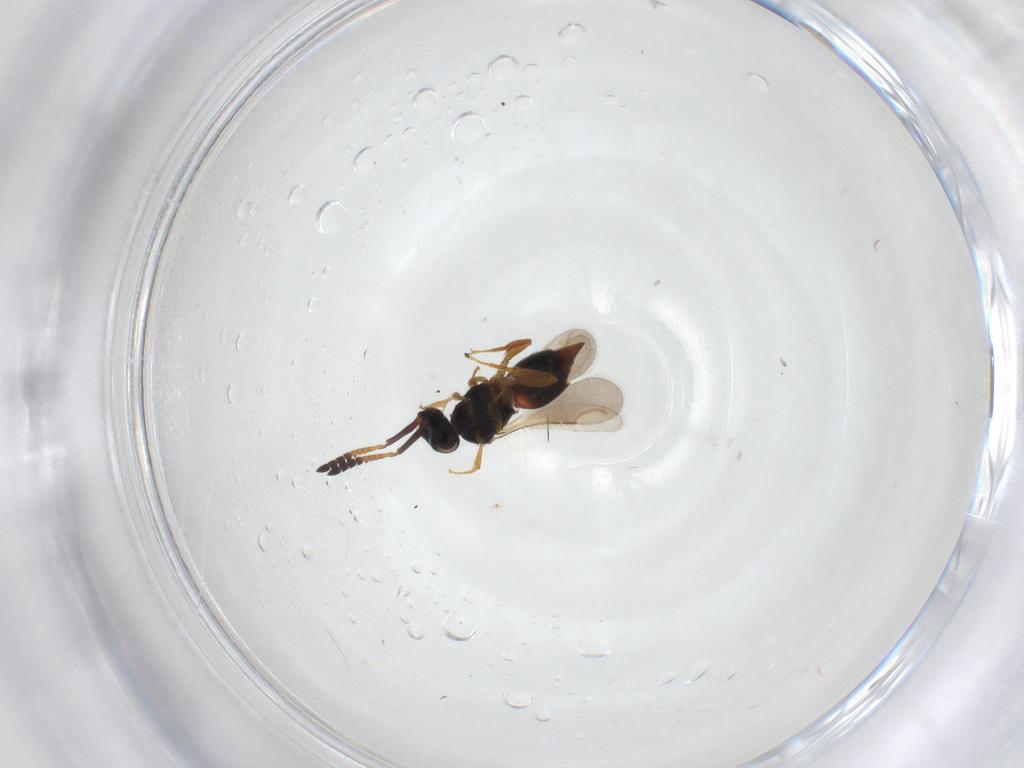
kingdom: Animalia
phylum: Arthropoda
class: Insecta
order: Hymenoptera
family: Ceraphronidae
